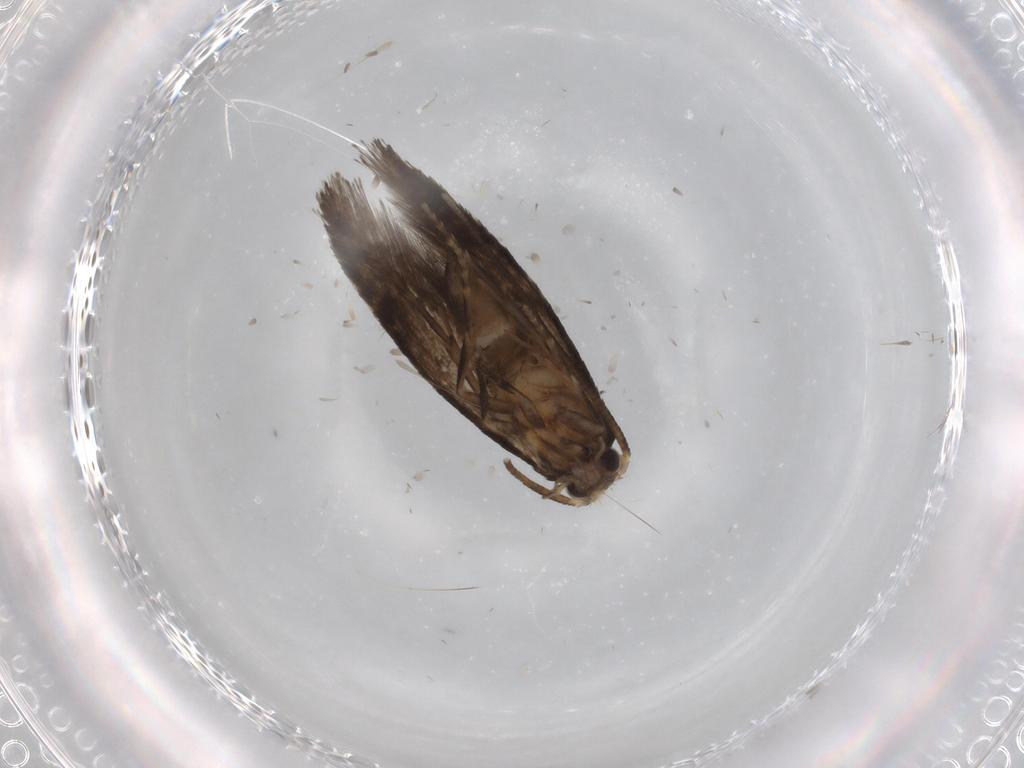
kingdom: Animalia
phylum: Arthropoda
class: Insecta
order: Lepidoptera
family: Tineidae
